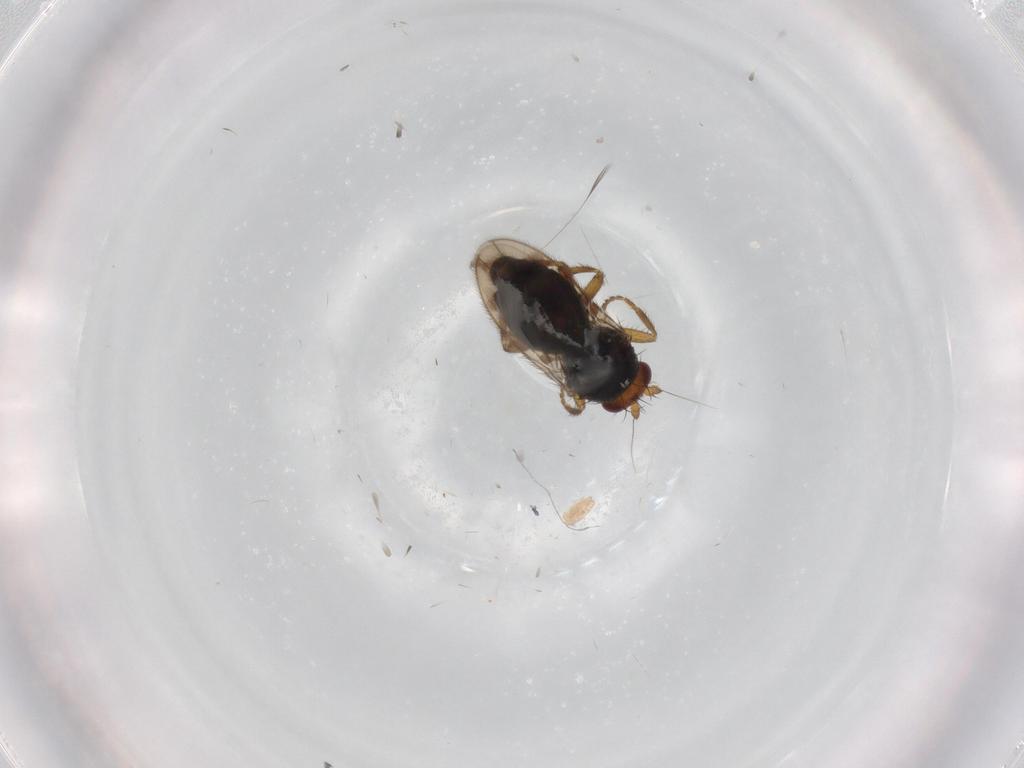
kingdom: Animalia
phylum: Arthropoda
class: Insecta
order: Diptera
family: Sphaeroceridae
